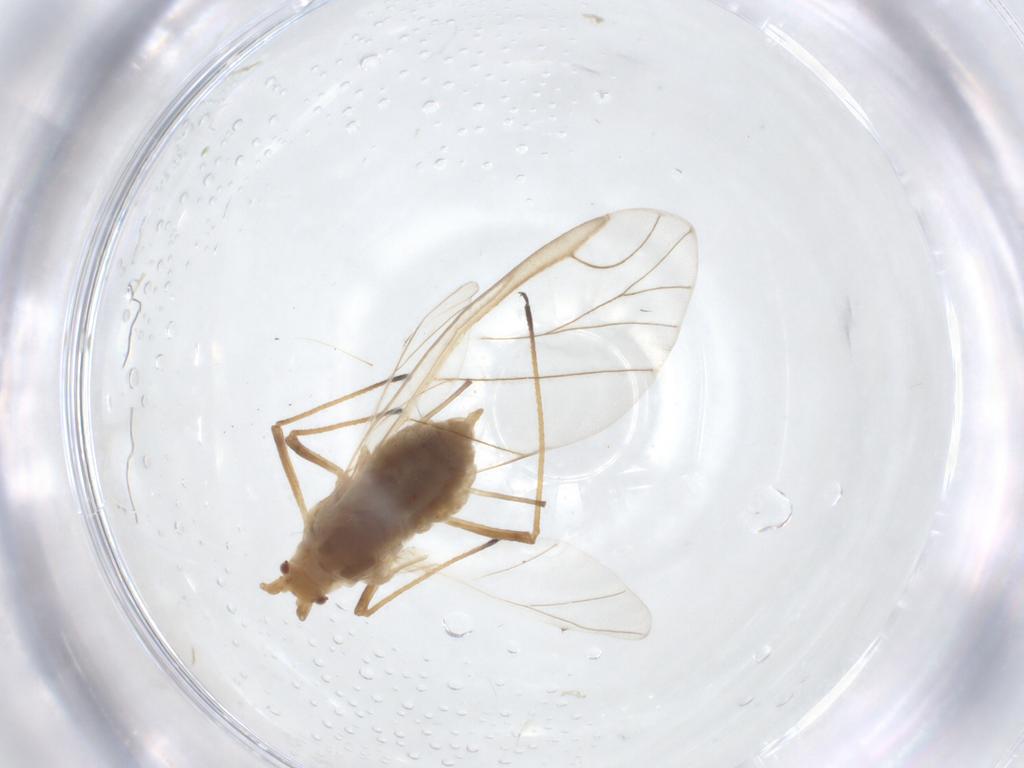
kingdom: Animalia
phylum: Arthropoda
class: Insecta
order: Hemiptera
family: Aphididae
